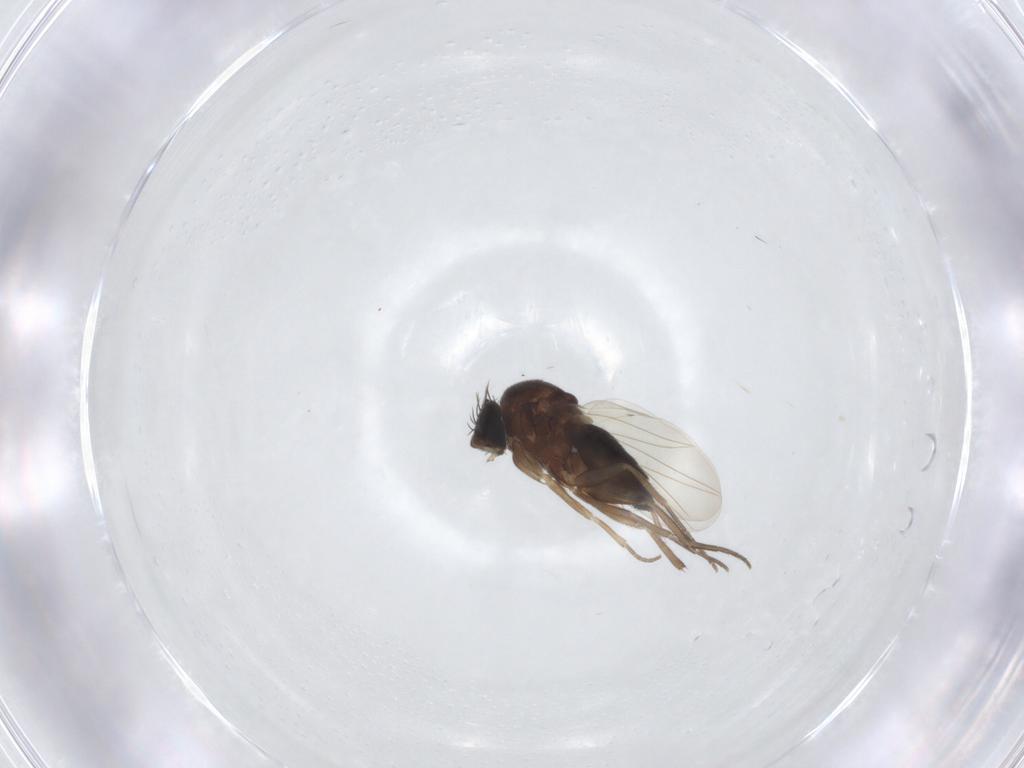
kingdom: Animalia
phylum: Arthropoda
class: Insecta
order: Diptera
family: Phoridae
